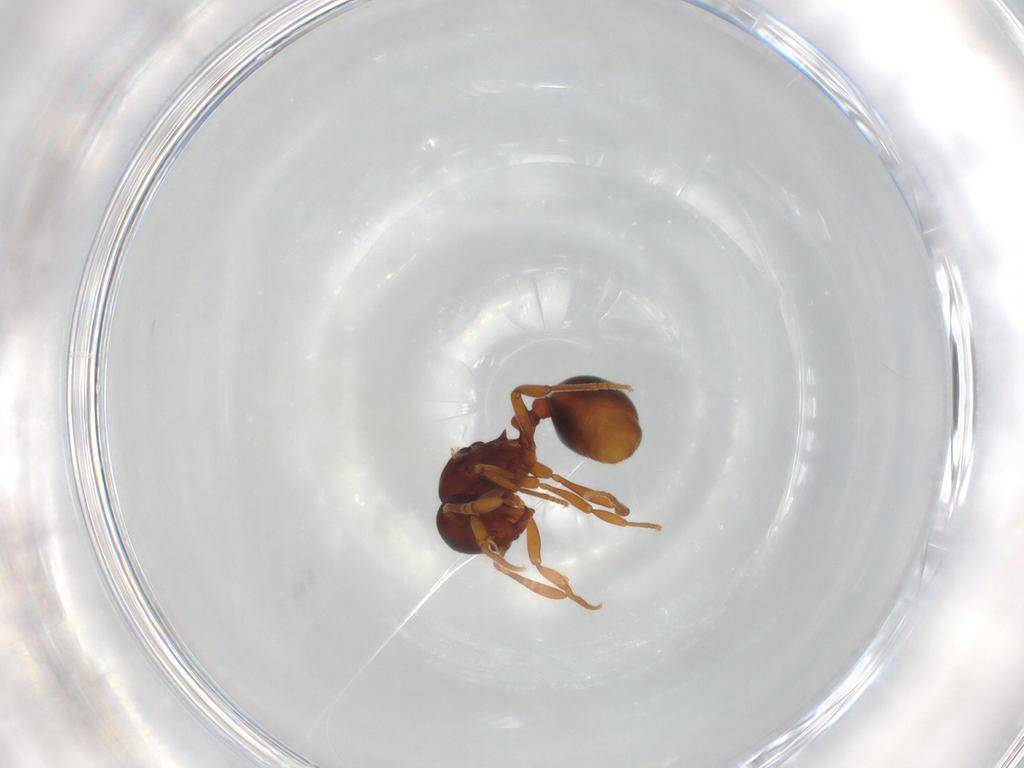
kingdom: Animalia
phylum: Arthropoda
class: Insecta
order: Hymenoptera
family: Formicidae
